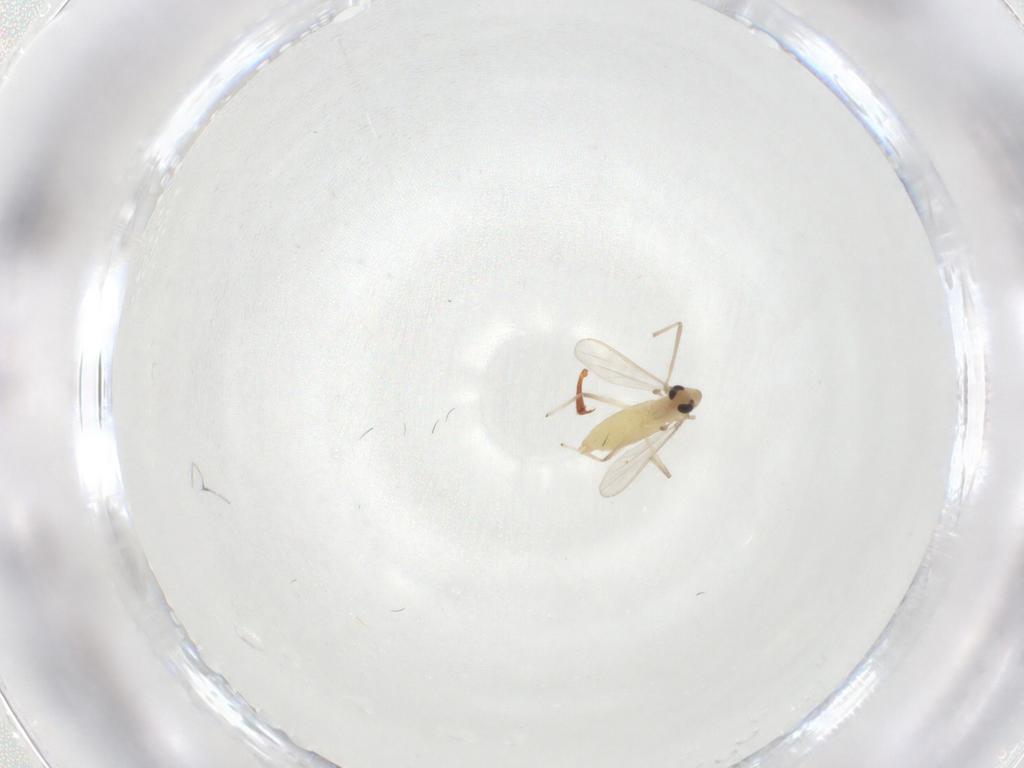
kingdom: Animalia
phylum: Arthropoda
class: Insecta
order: Diptera
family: Chironomidae
